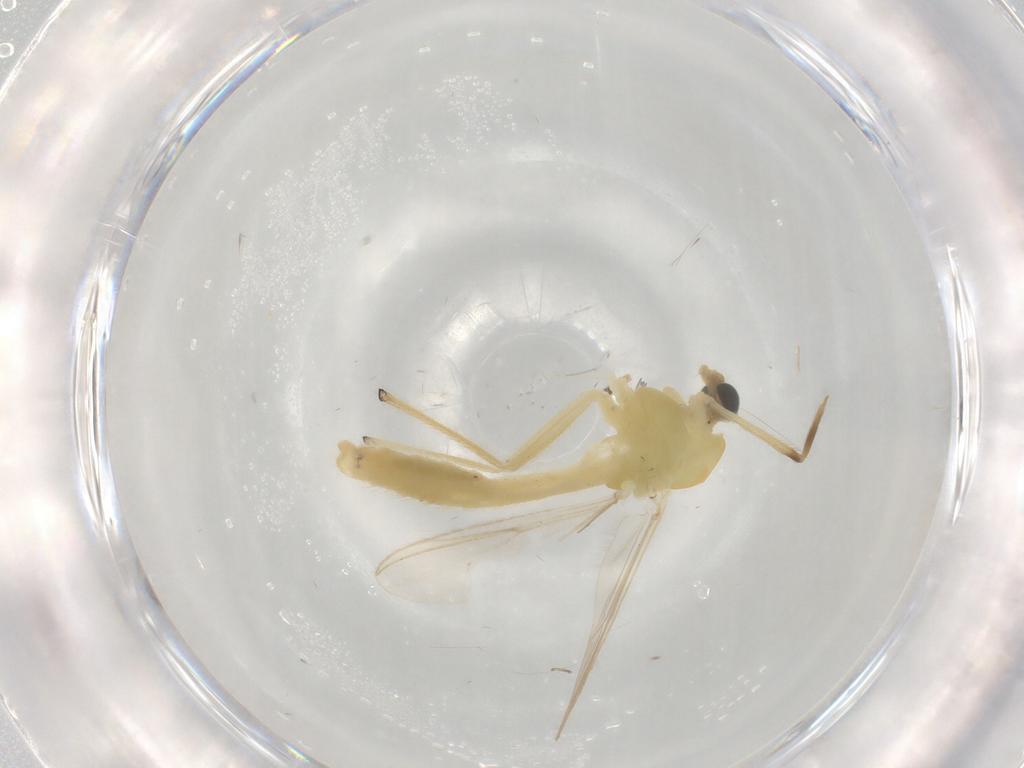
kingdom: Animalia
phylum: Arthropoda
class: Insecta
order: Diptera
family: Chironomidae
